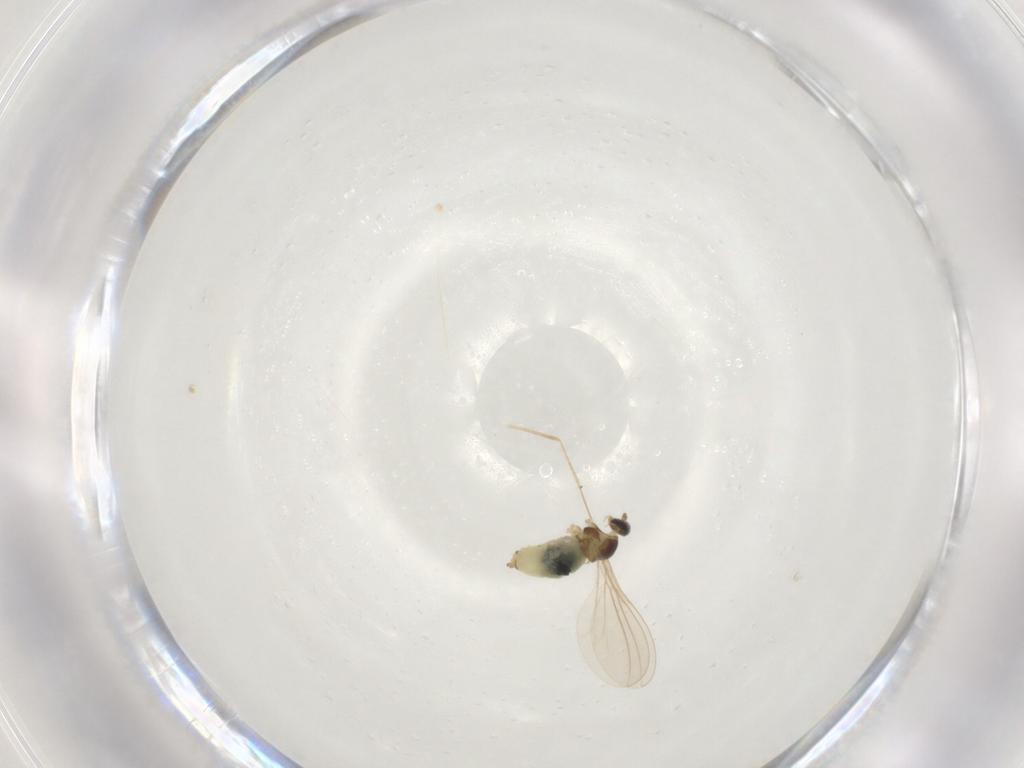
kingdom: Animalia
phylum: Arthropoda
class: Insecta
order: Diptera
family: Cecidomyiidae
